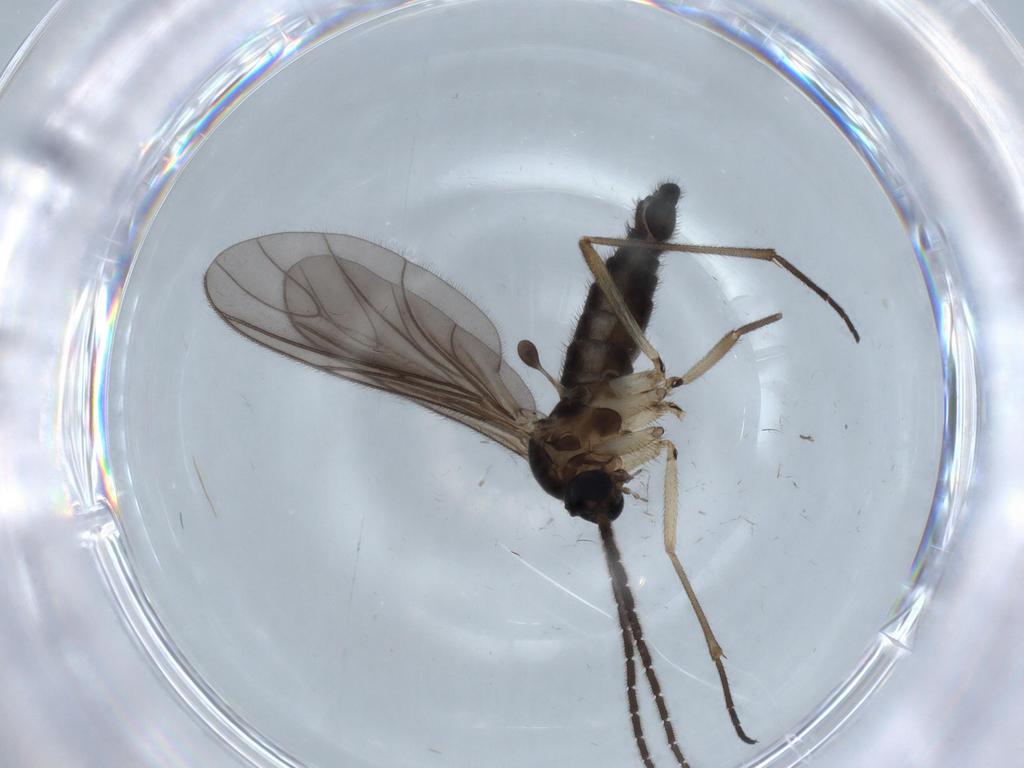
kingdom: Animalia
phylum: Arthropoda
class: Insecta
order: Diptera
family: Sciaridae
